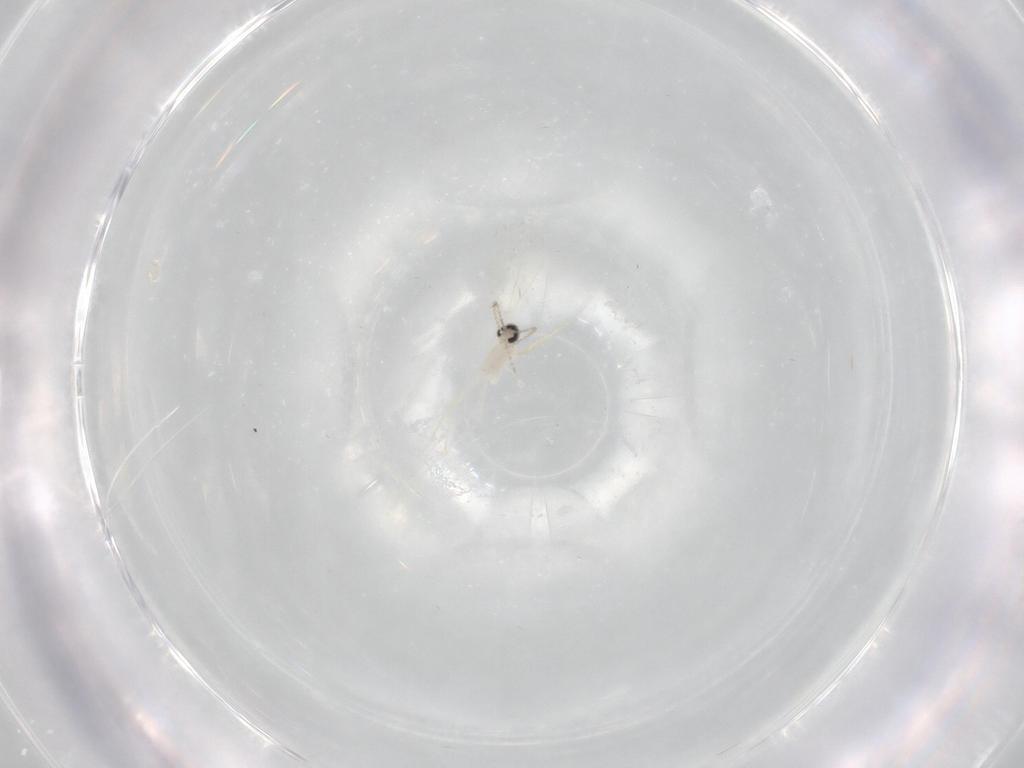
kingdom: Animalia
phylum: Arthropoda
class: Insecta
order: Diptera
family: Cecidomyiidae
